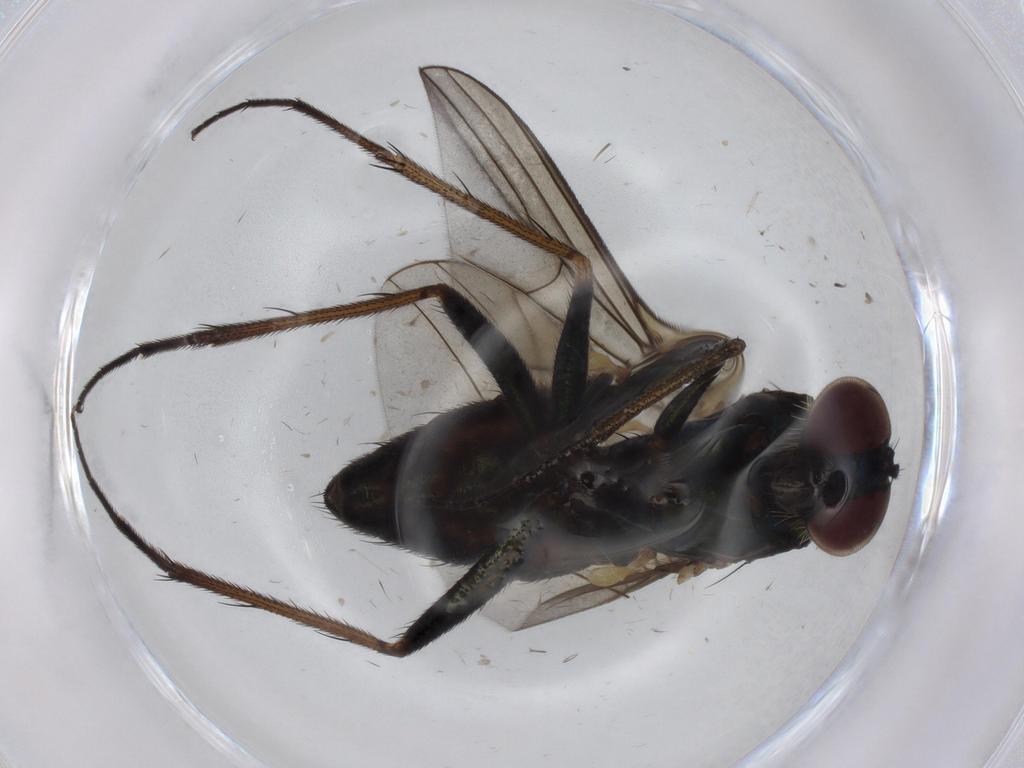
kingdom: Animalia
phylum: Arthropoda
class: Insecta
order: Diptera
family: Dolichopodidae
